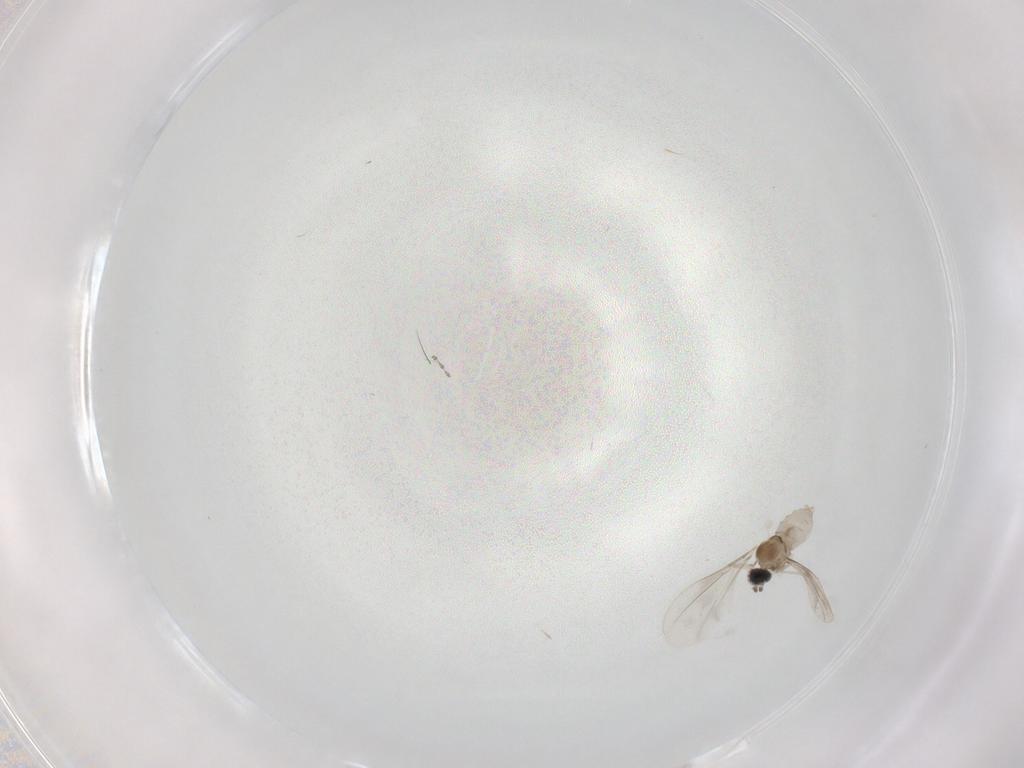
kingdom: Animalia
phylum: Arthropoda
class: Insecta
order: Diptera
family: Cecidomyiidae
